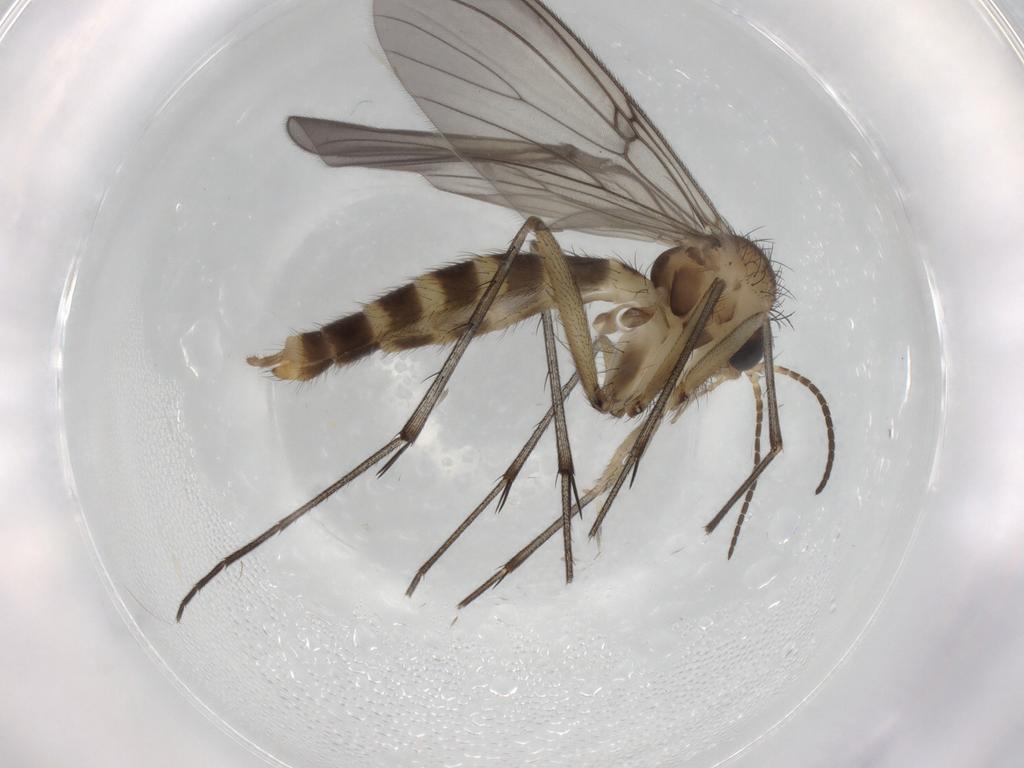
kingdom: Animalia
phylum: Arthropoda
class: Insecta
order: Diptera
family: Mycetophilidae
